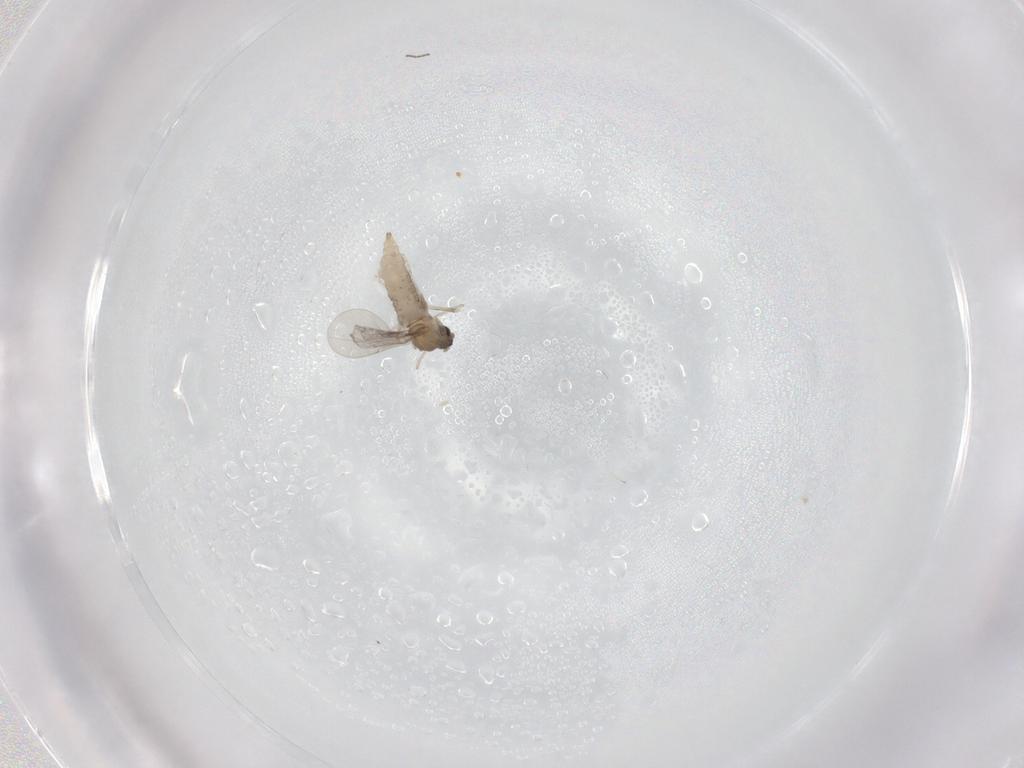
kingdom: Animalia
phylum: Arthropoda
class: Insecta
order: Diptera
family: Cecidomyiidae
